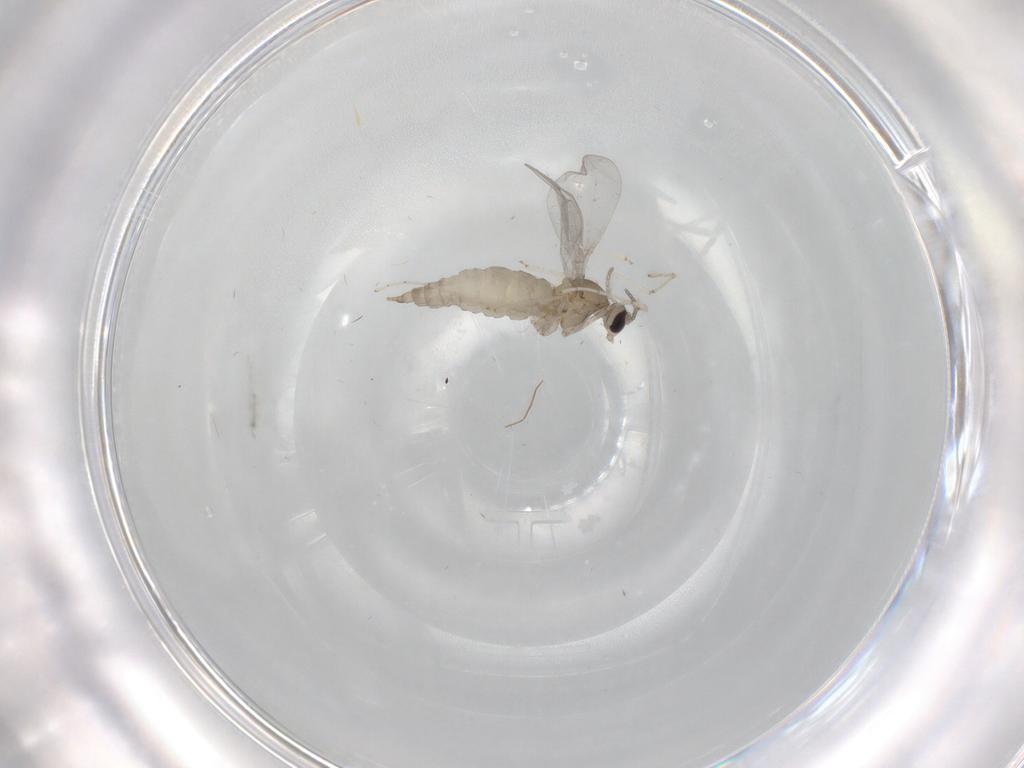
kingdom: Animalia
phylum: Arthropoda
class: Insecta
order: Diptera
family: Cecidomyiidae
